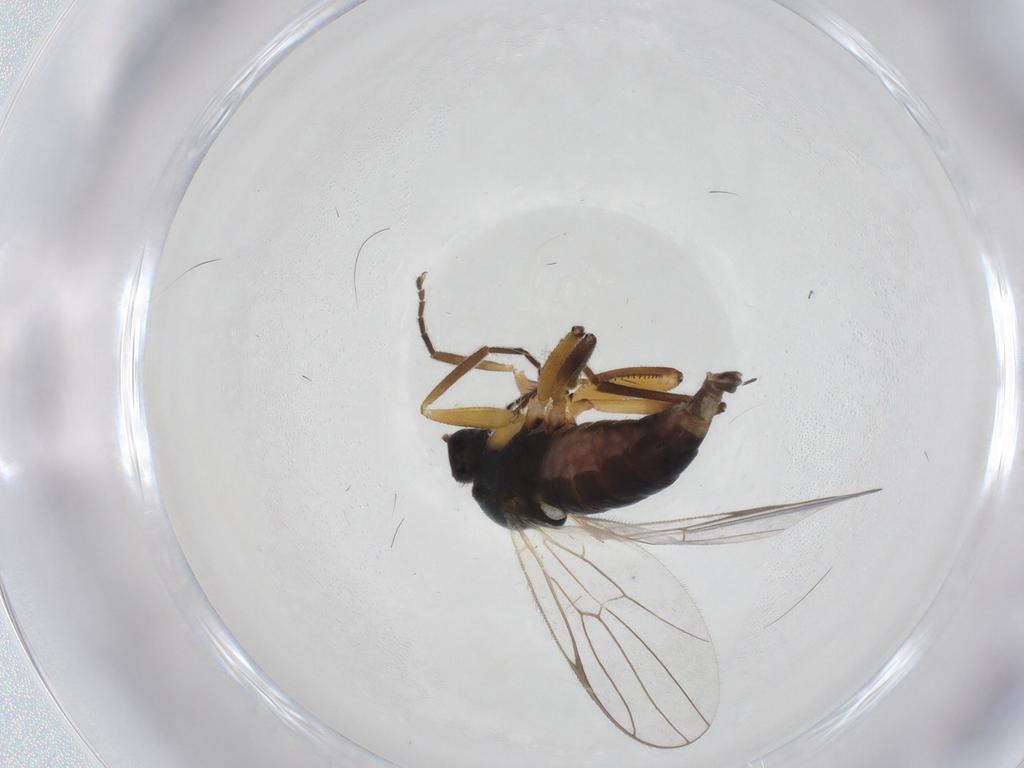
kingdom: Animalia
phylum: Arthropoda
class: Insecta
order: Diptera
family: Hybotidae
